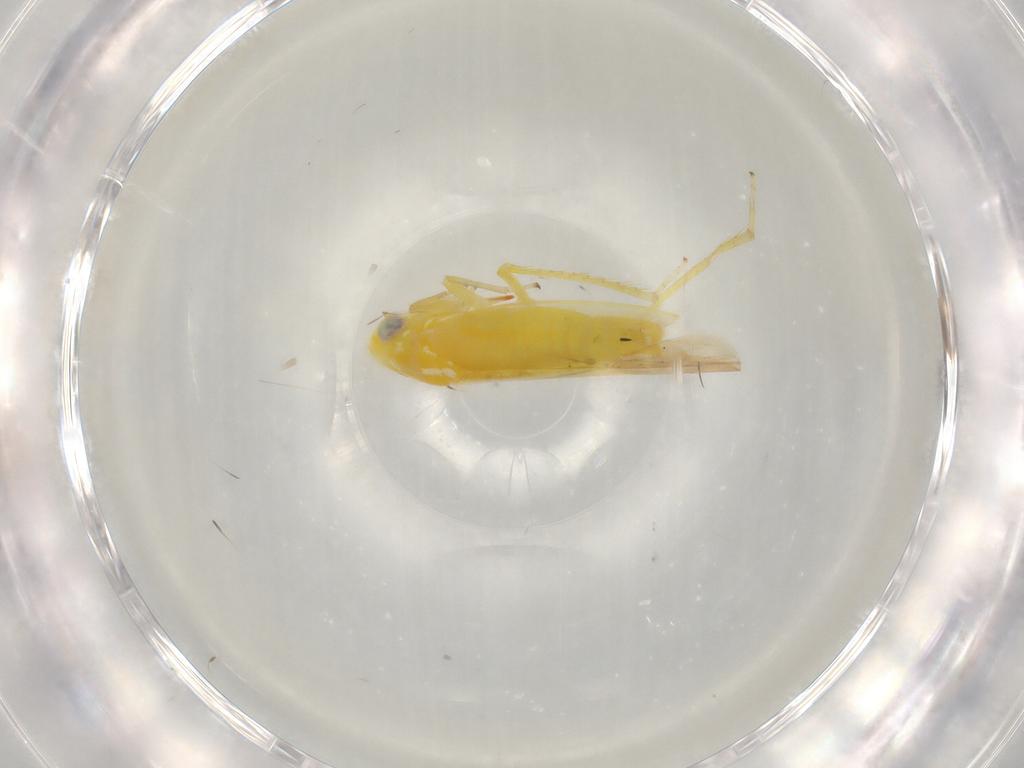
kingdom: Animalia
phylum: Arthropoda
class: Insecta
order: Hemiptera
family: Cicadellidae
